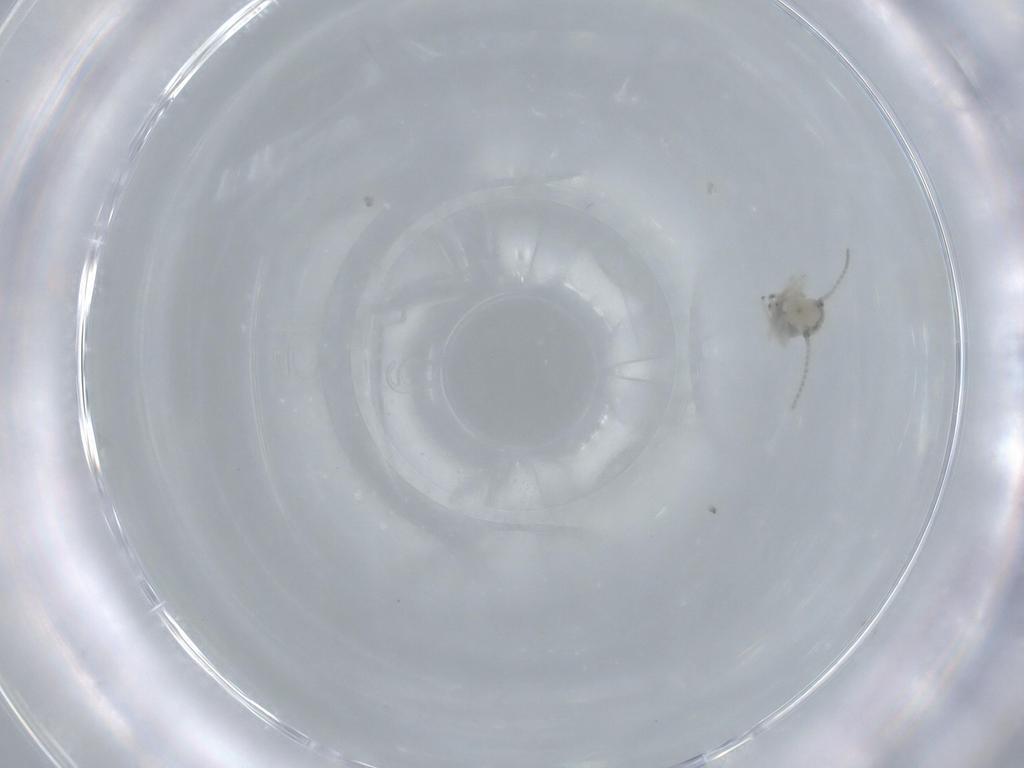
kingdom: Animalia
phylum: Arthropoda
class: Insecta
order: Psocodea
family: Amphipsocidae
